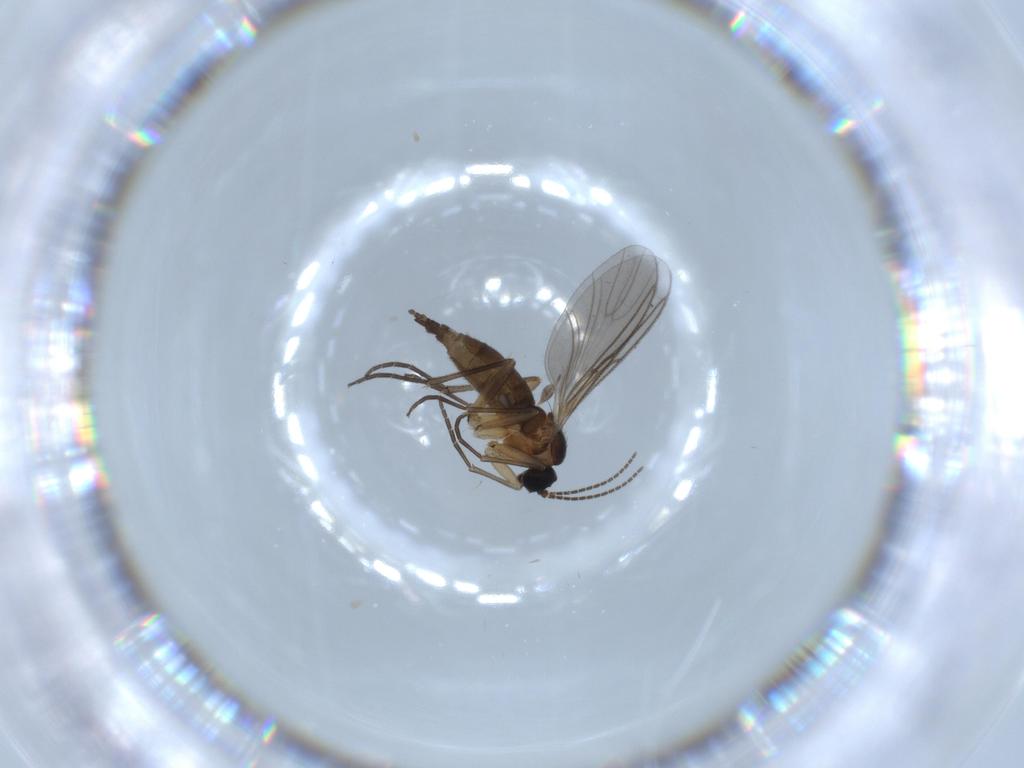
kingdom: Animalia
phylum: Arthropoda
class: Insecta
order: Diptera
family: Sciaridae
